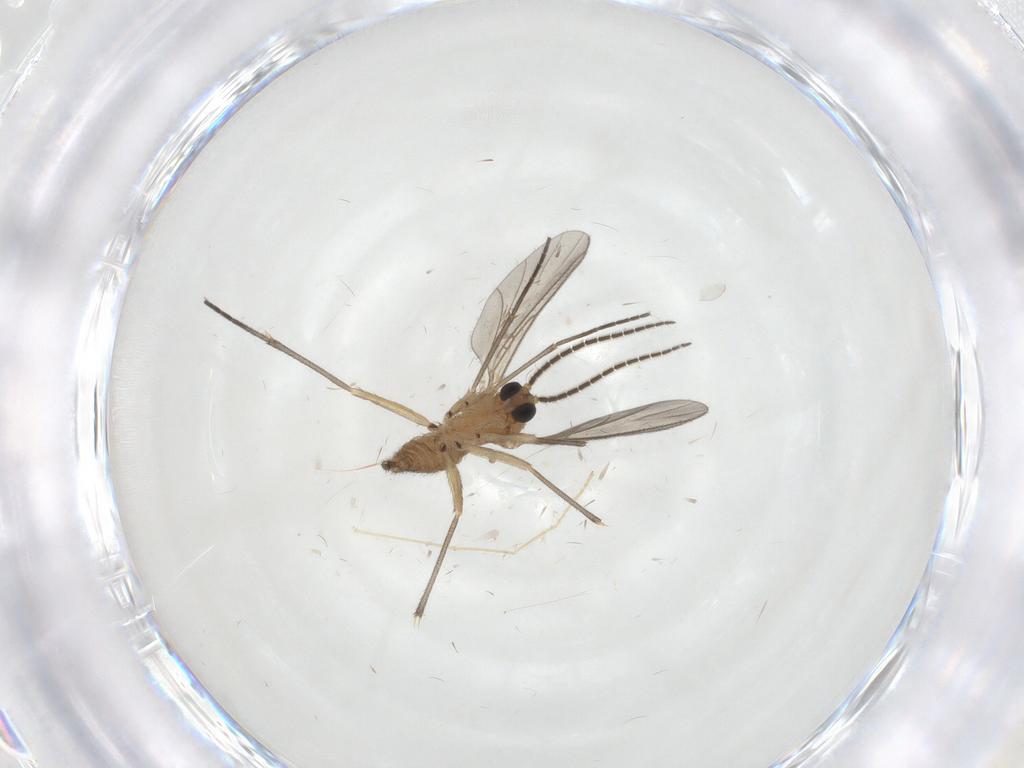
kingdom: Animalia
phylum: Arthropoda
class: Insecta
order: Diptera
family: Sciaridae
